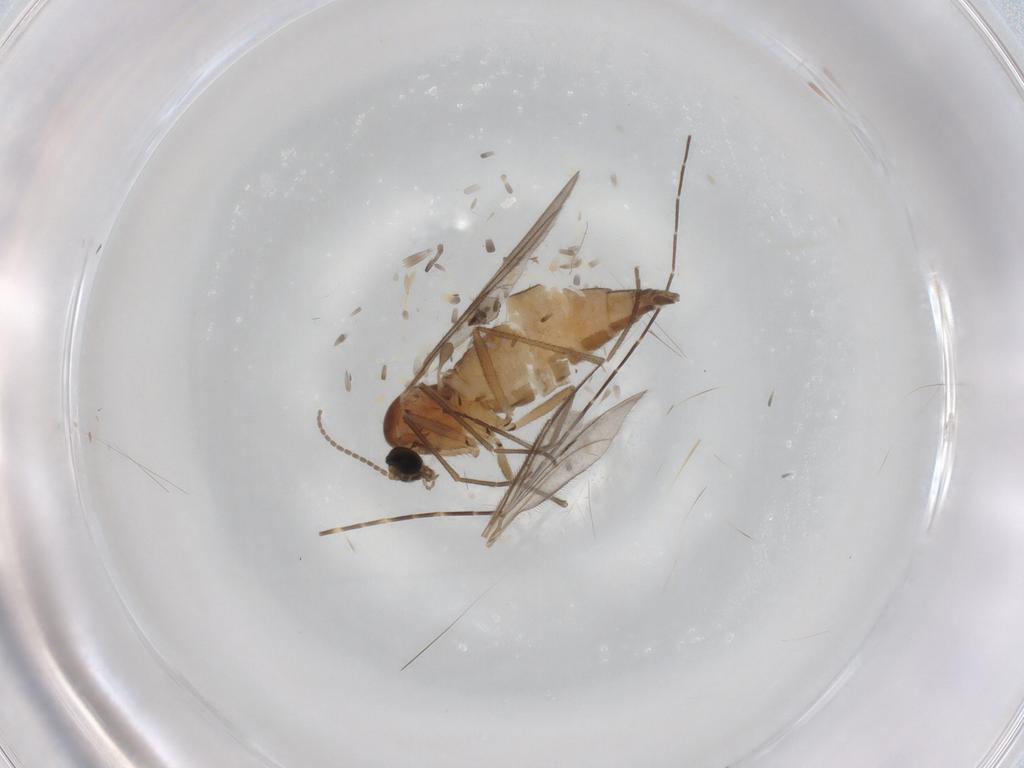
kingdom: Animalia
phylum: Arthropoda
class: Insecta
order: Diptera
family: Sciaridae
